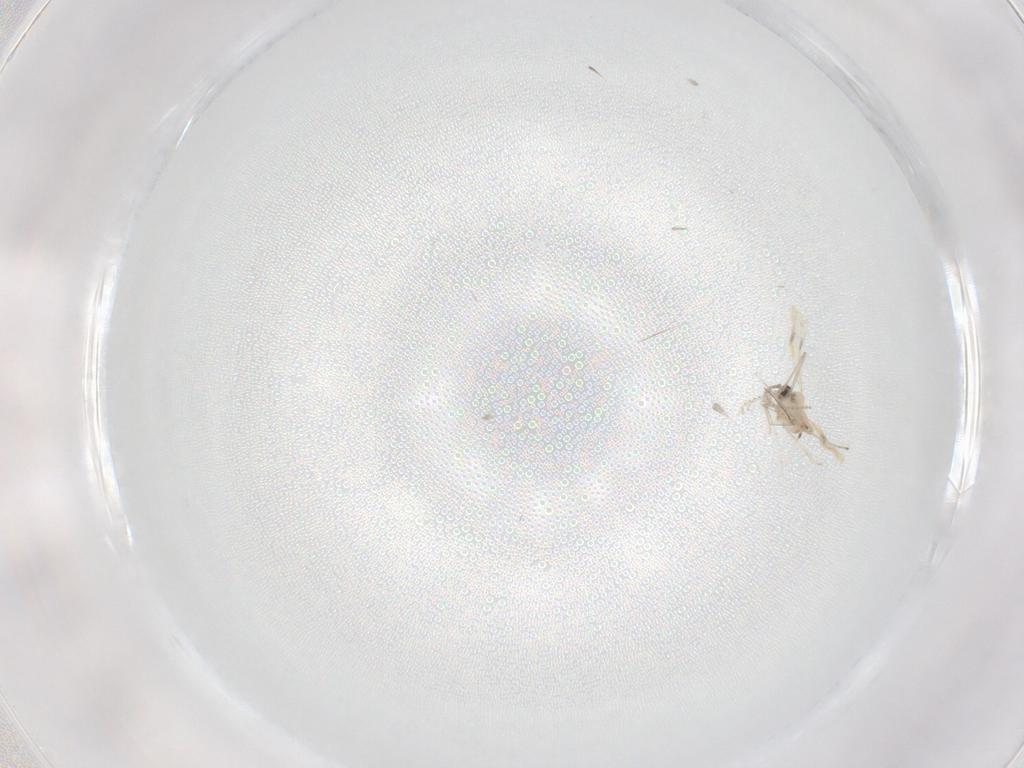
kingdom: Animalia
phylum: Arthropoda
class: Insecta
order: Diptera
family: Cecidomyiidae
